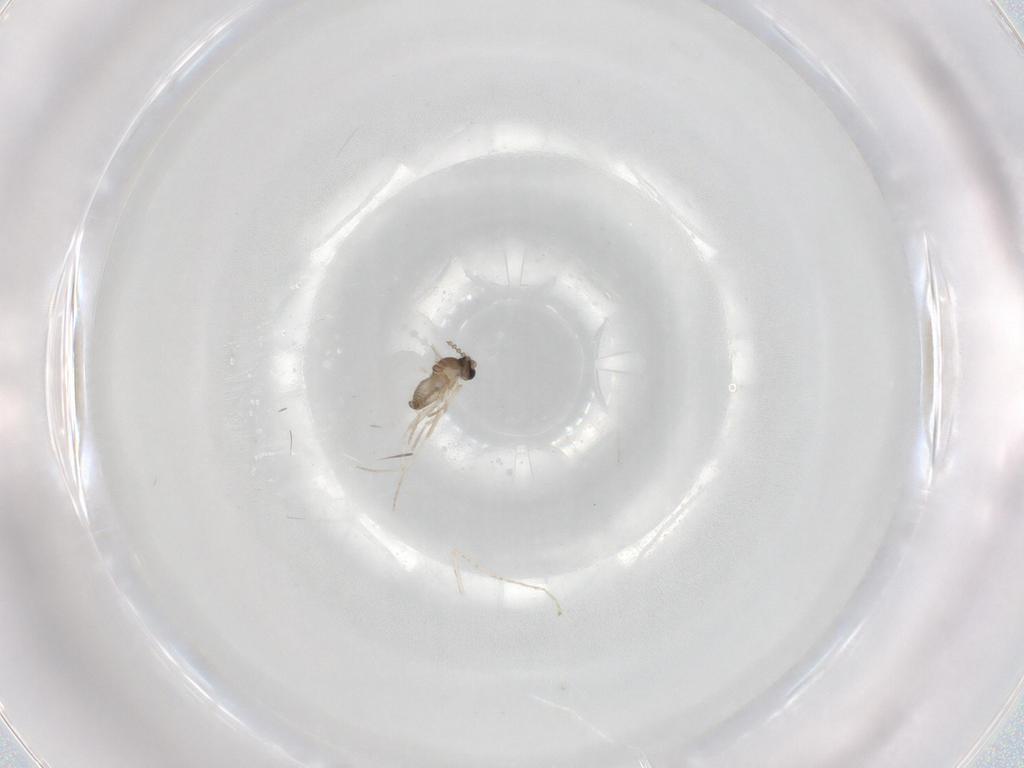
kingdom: Animalia
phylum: Arthropoda
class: Insecta
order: Diptera
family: Cecidomyiidae
